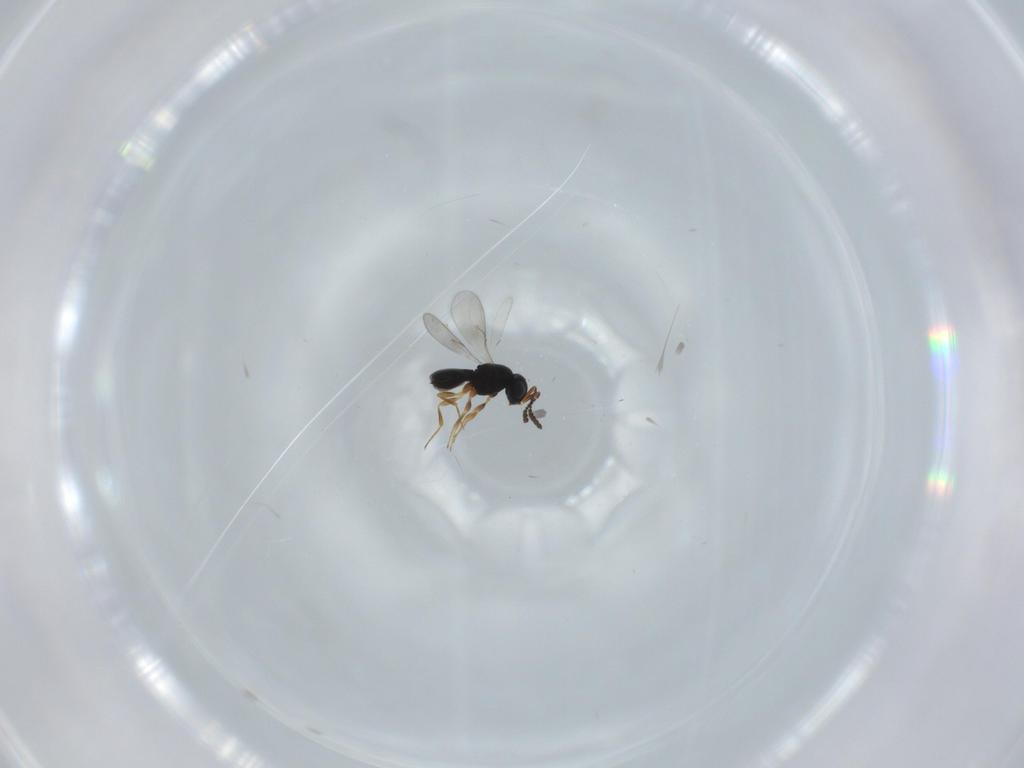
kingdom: Animalia
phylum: Arthropoda
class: Insecta
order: Hymenoptera
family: Scelionidae
